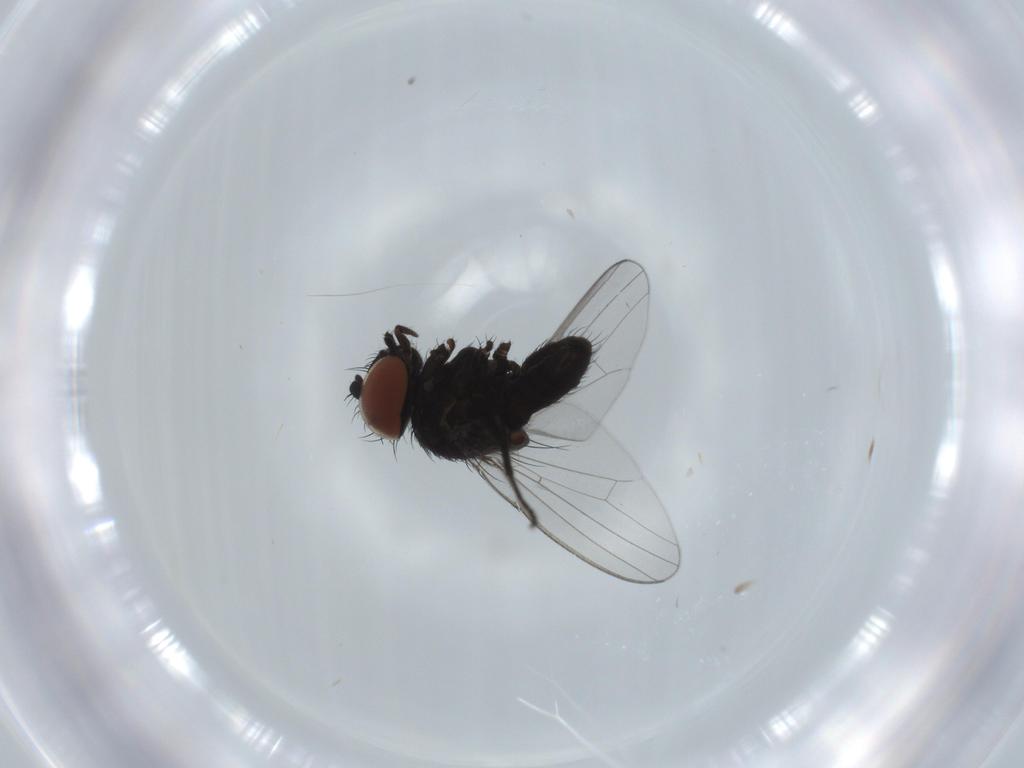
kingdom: Animalia
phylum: Arthropoda
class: Insecta
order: Diptera
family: Milichiidae
